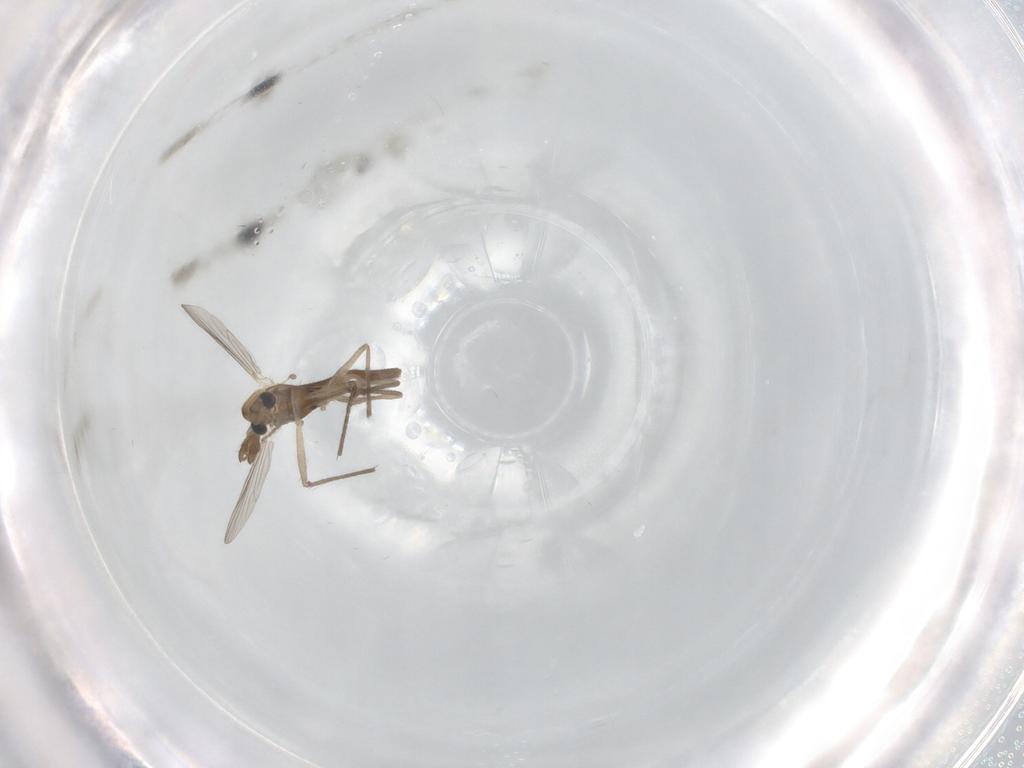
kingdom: Animalia
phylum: Arthropoda
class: Insecta
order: Diptera
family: Chironomidae
